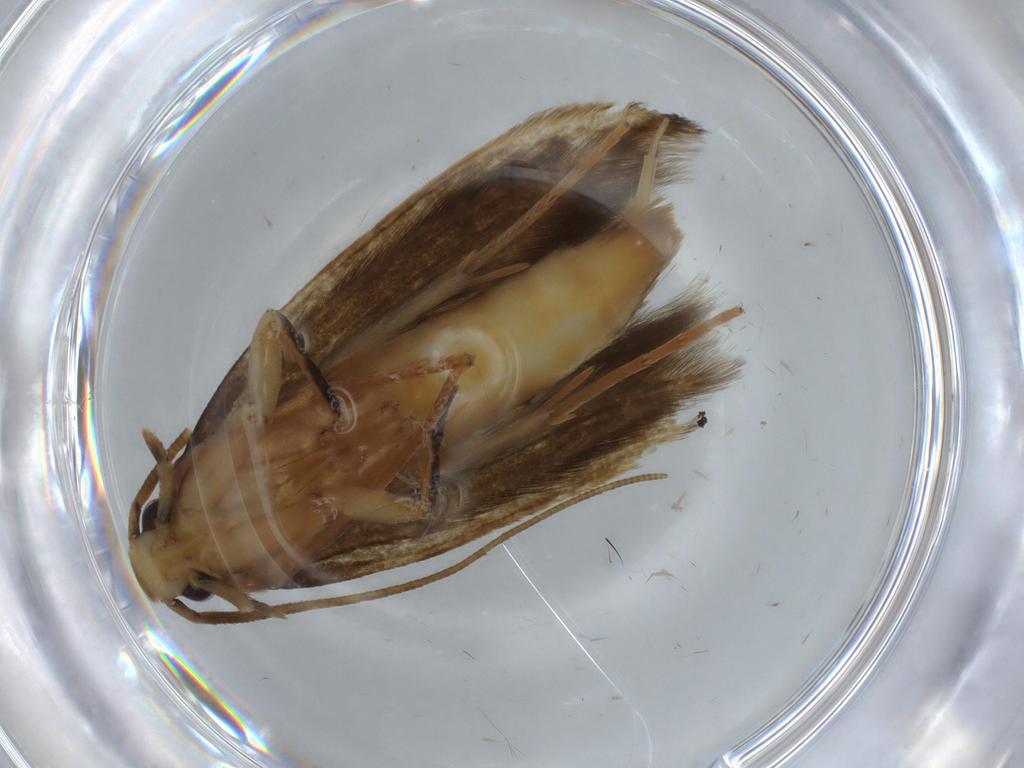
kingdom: Animalia
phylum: Arthropoda
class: Insecta
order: Lepidoptera
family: Tineidae
